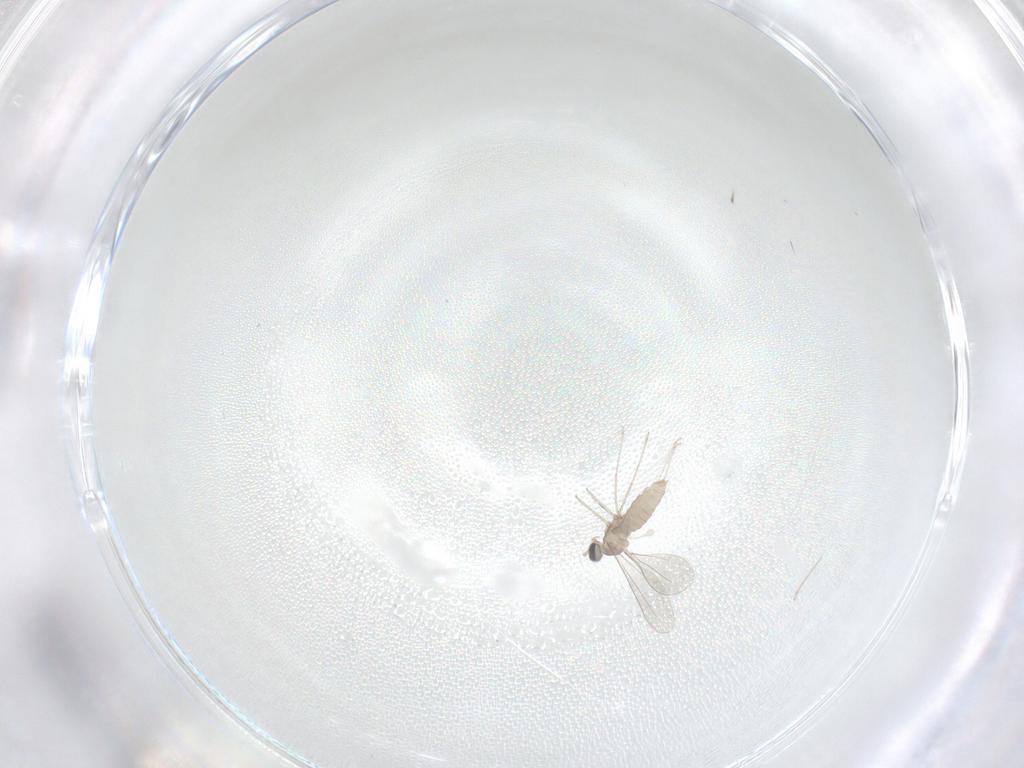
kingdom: Animalia
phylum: Arthropoda
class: Insecta
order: Diptera
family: Cecidomyiidae
